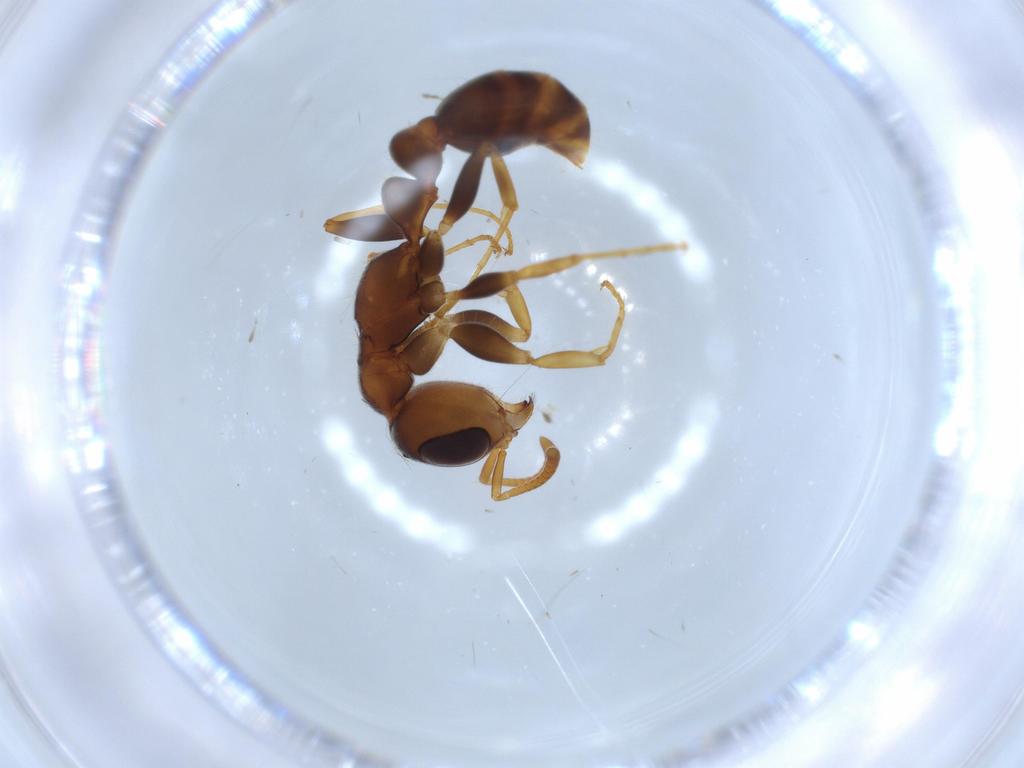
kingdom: Animalia
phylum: Arthropoda
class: Insecta
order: Hymenoptera
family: Formicidae
